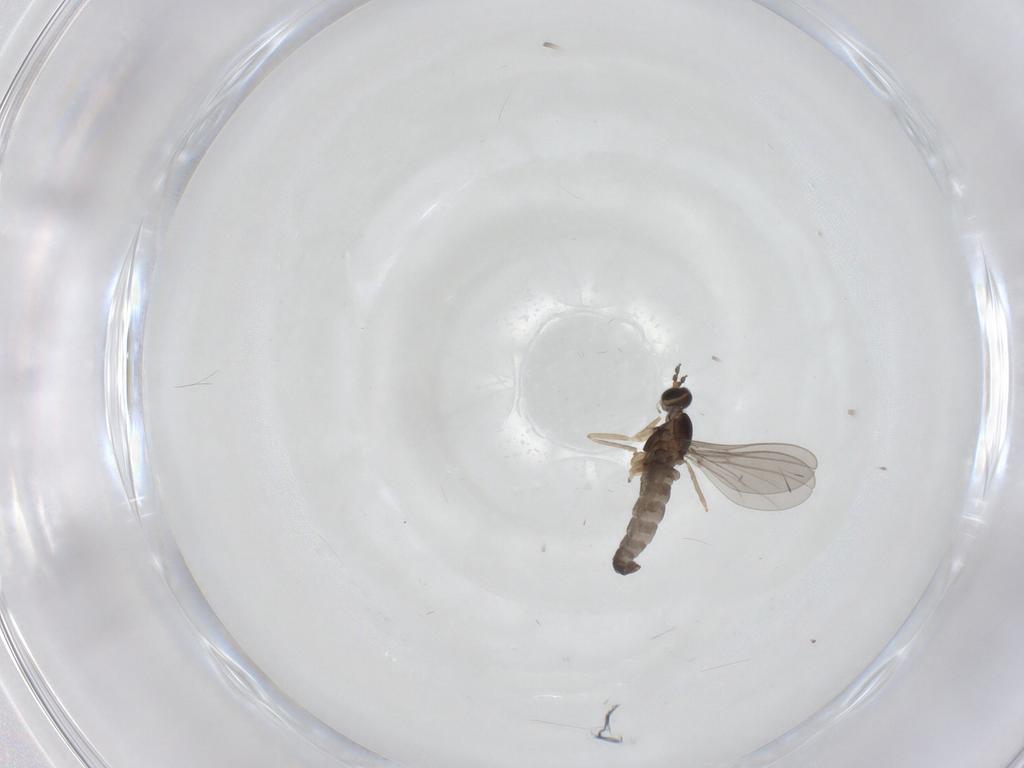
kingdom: Animalia
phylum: Arthropoda
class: Insecta
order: Diptera
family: Cecidomyiidae
